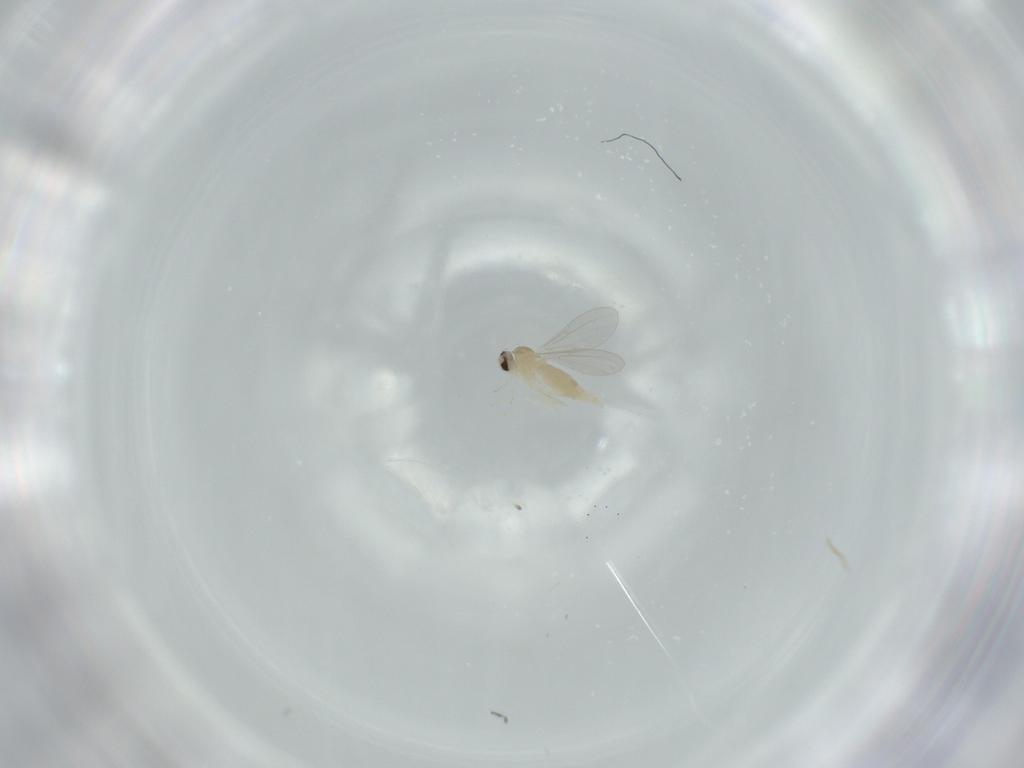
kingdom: Animalia
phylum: Arthropoda
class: Insecta
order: Diptera
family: Cecidomyiidae
